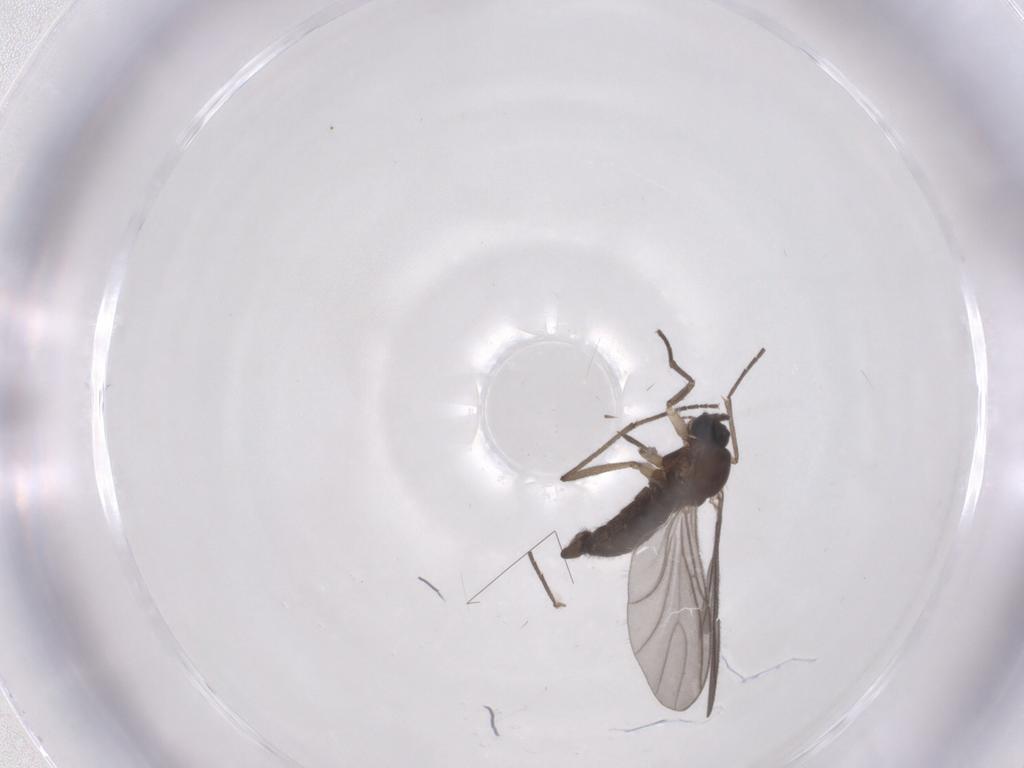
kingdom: Animalia
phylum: Arthropoda
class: Insecta
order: Diptera
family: Sciaridae
